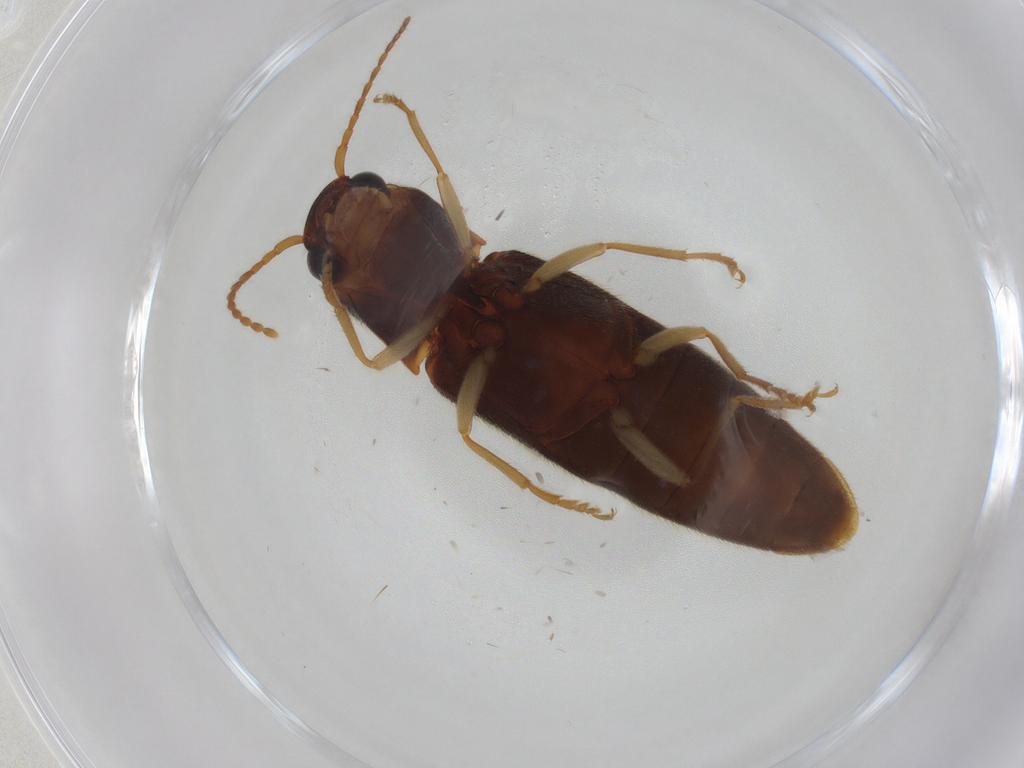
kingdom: Animalia
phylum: Arthropoda
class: Insecta
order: Coleoptera
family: Elateridae
